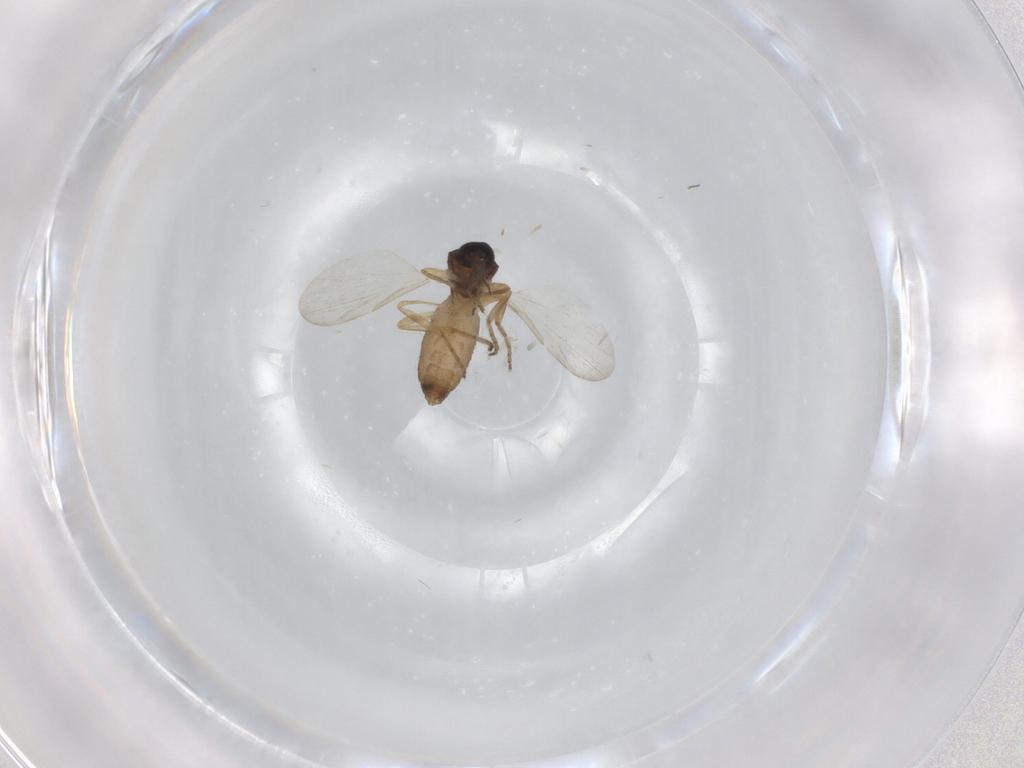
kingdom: Animalia
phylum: Arthropoda
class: Insecta
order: Diptera
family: Ceratopogonidae
